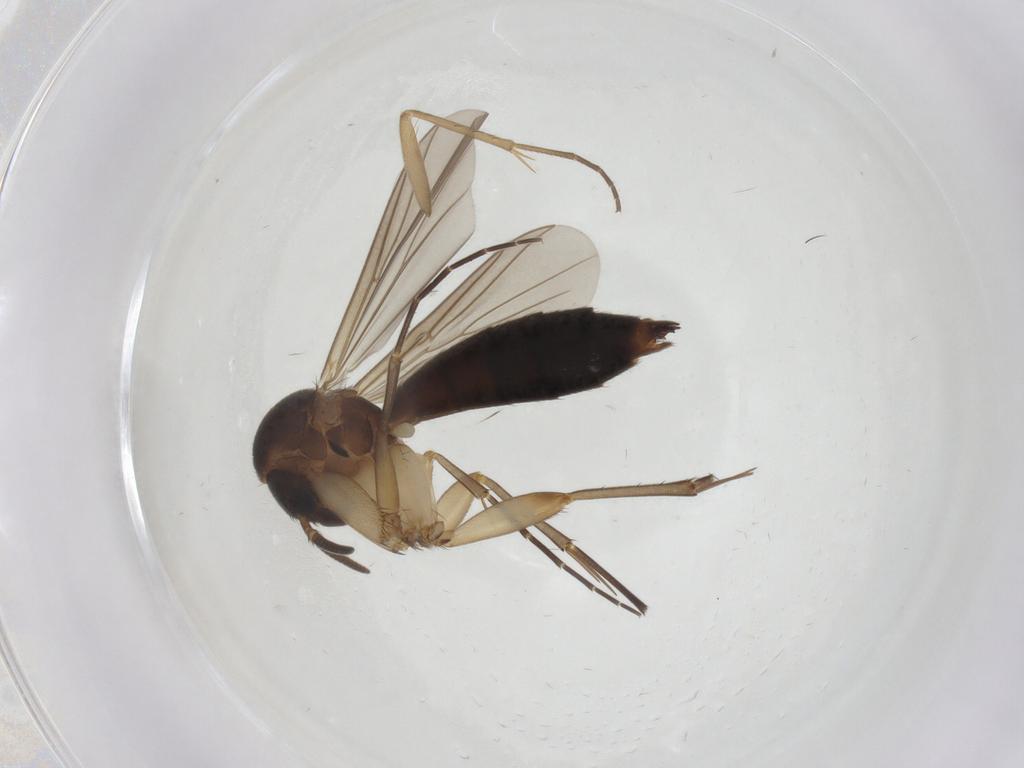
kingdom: Animalia
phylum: Arthropoda
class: Insecta
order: Diptera
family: Mycetophilidae
